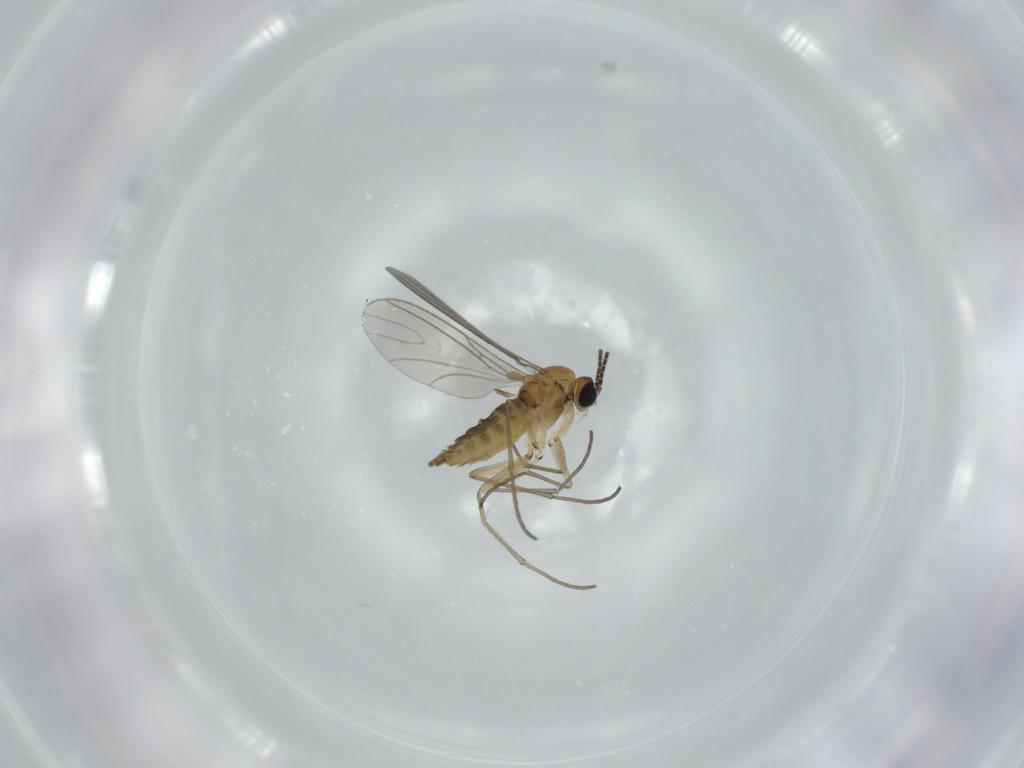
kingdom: Animalia
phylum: Arthropoda
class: Insecta
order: Diptera
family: Sciaridae
